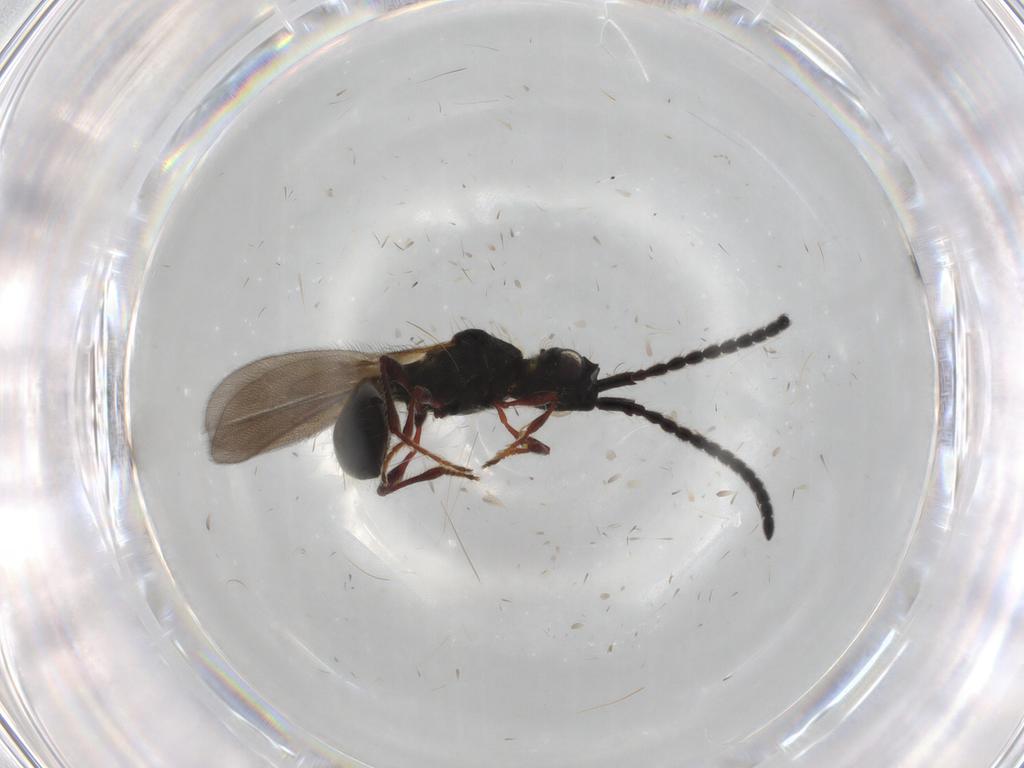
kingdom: Animalia
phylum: Arthropoda
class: Insecta
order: Hymenoptera
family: Diapriidae
